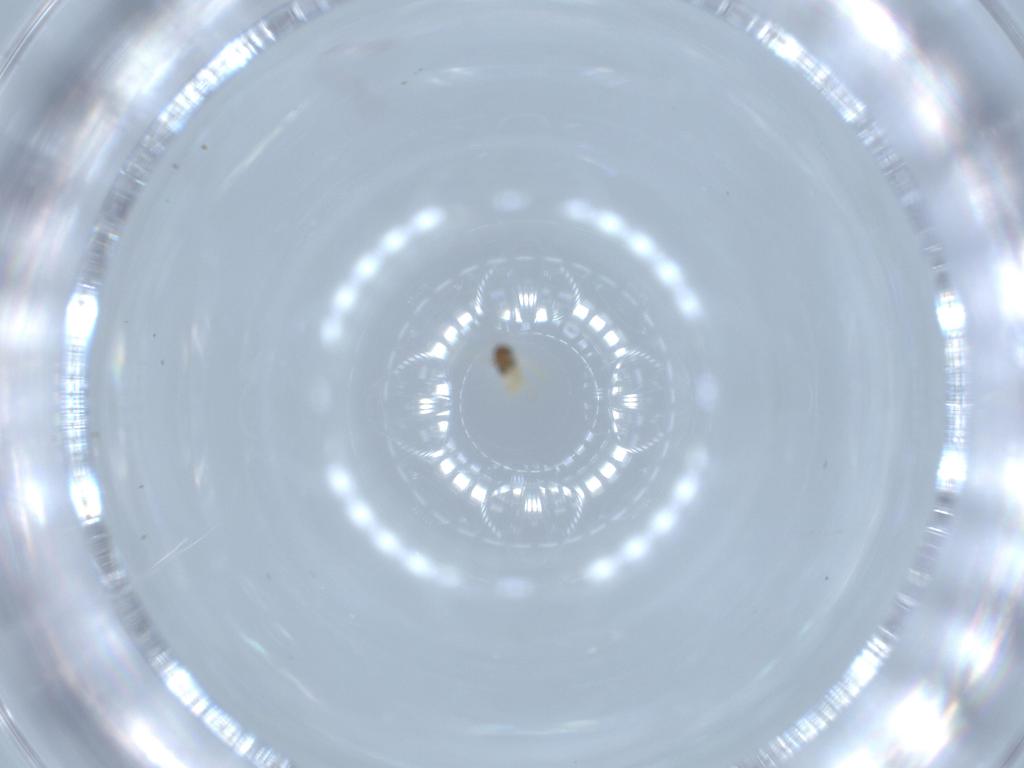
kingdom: Animalia
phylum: Arthropoda
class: Insecta
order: Hymenoptera
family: Aphelinidae
